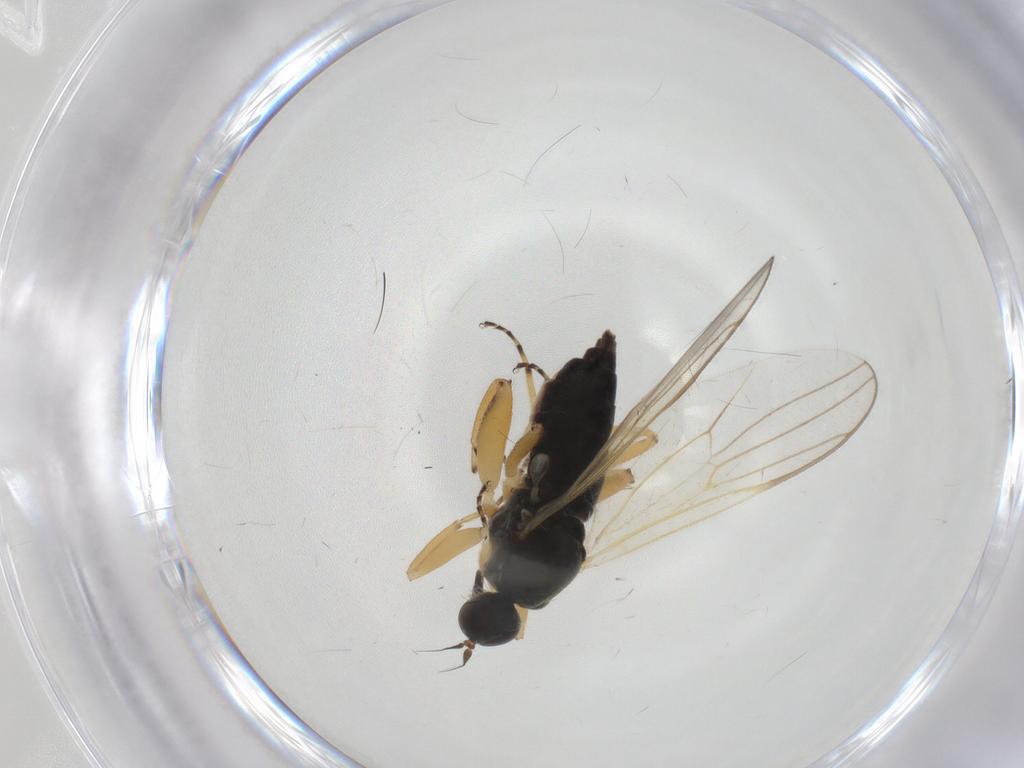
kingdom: Animalia
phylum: Arthropoda
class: Insecta
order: Diptera
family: Hybotidae
